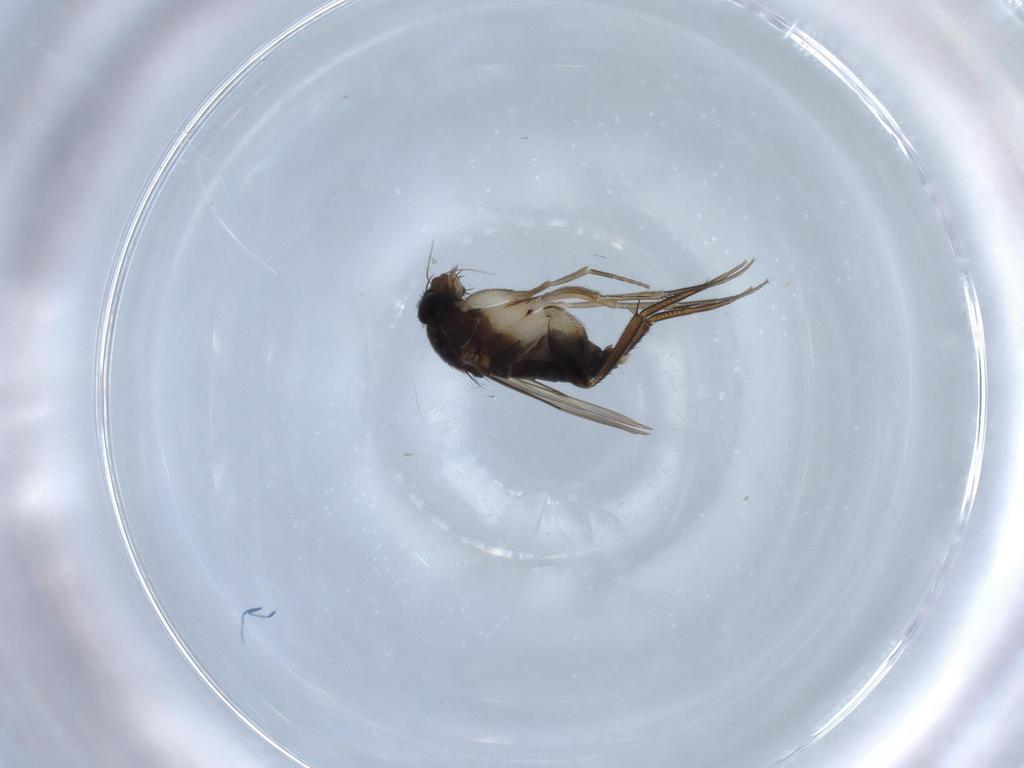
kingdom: Animalia
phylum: Arthropoda
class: Insecta
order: Diptera
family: Phoridae
